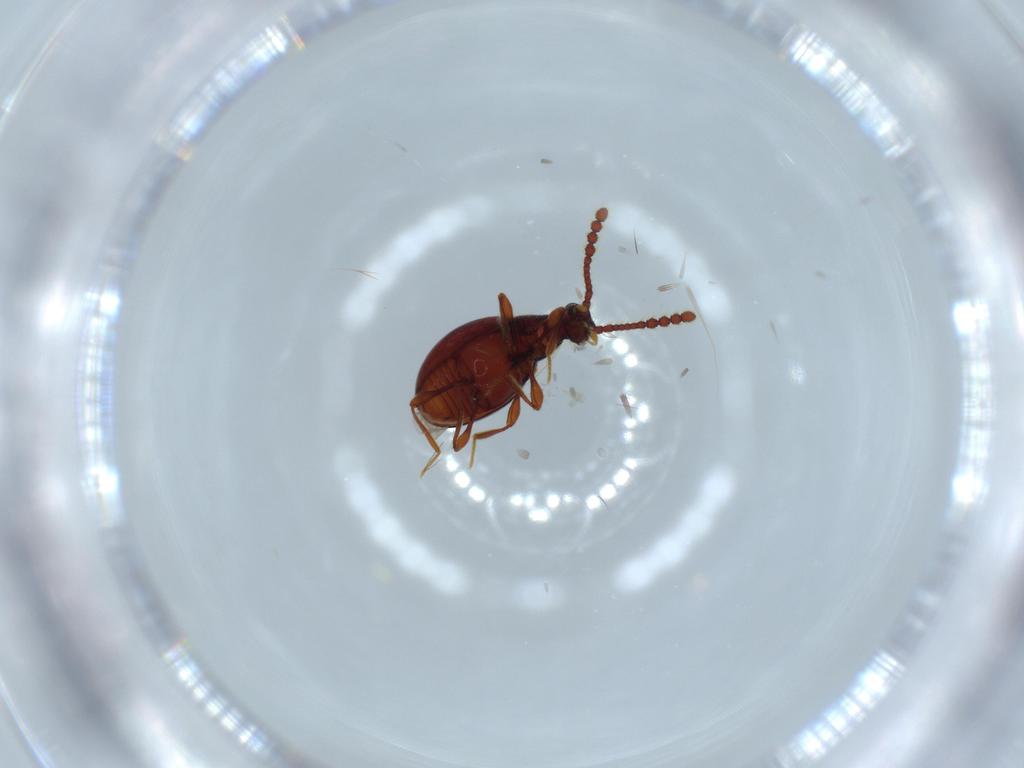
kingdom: Animalia
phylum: Arthropoda
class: Insecta
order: Coleoptera
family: Staphylinidae
